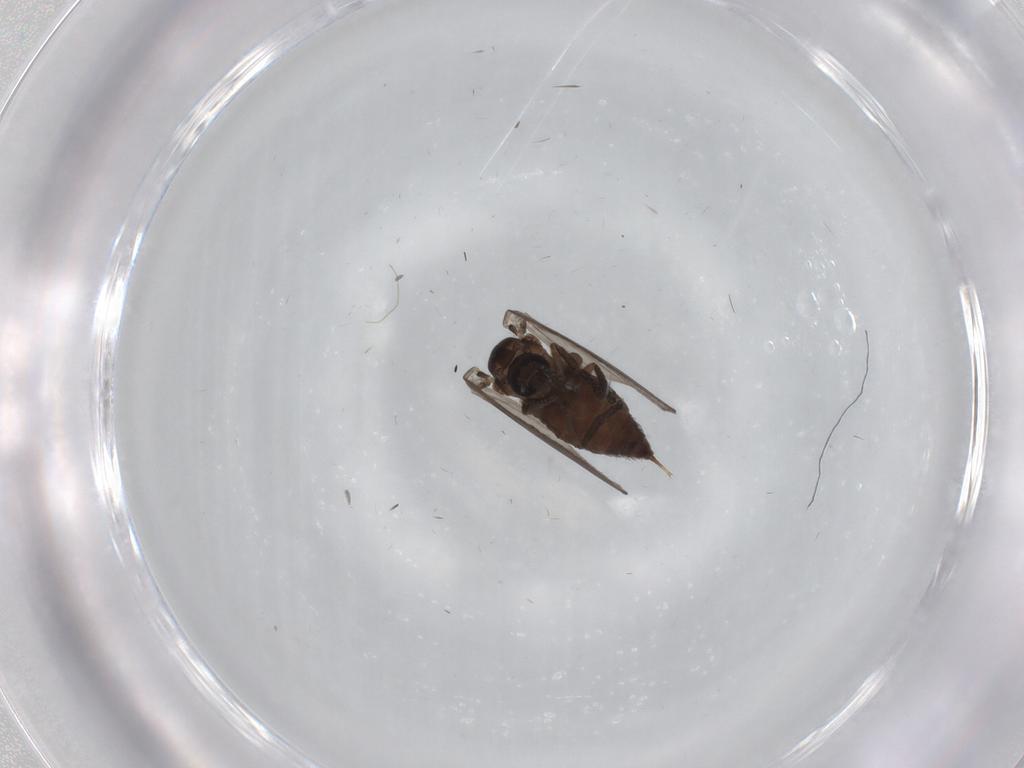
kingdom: Animalia
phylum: Arthropoda
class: Insecta
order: Diptera
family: Psychodidae
